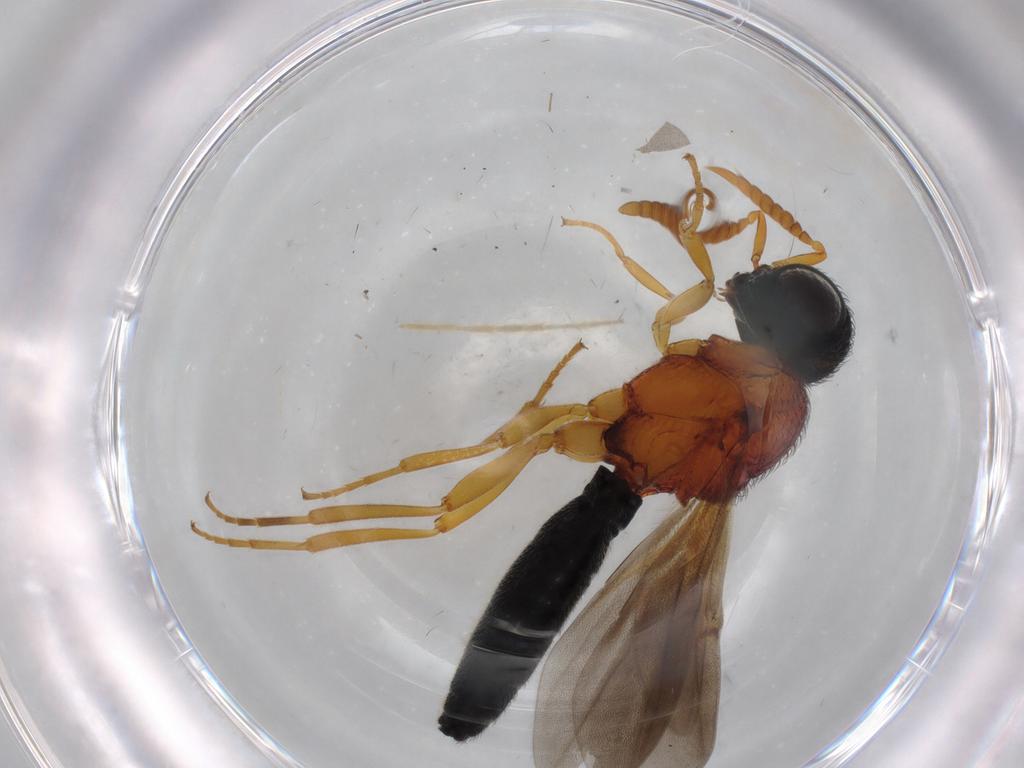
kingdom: Animalia
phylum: Arthropoda
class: Insecta
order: Hymenoptera
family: Scelionidae
